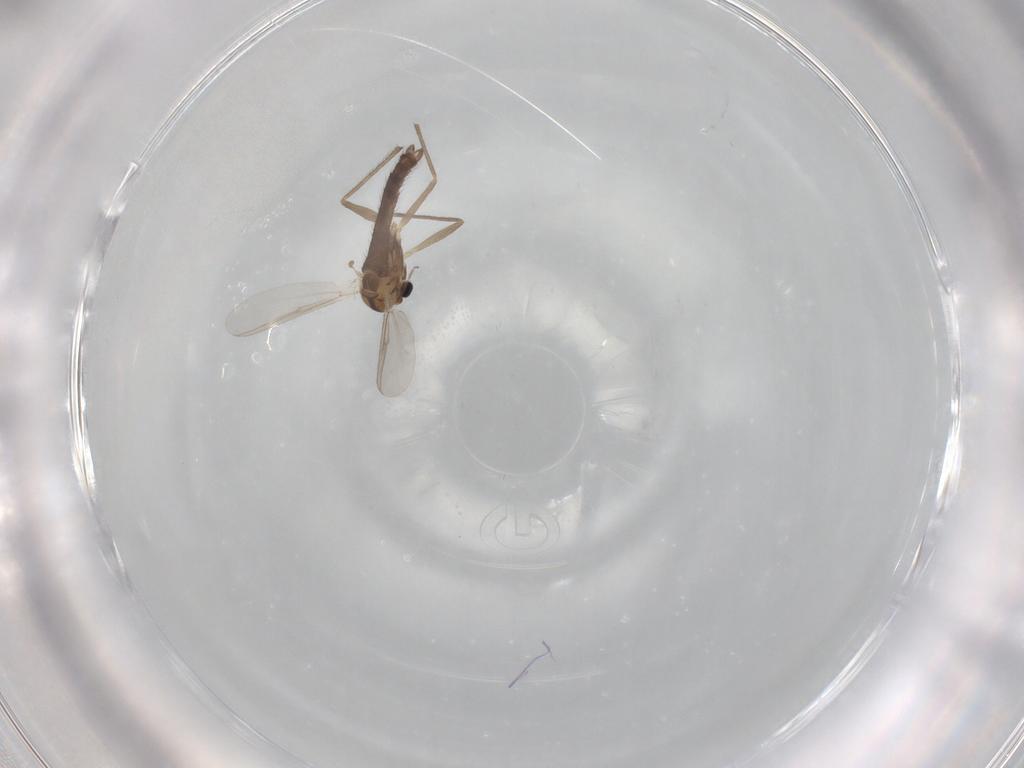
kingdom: Animalia
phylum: Arthropoda
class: Insecta
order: Diptera
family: Chironomidae
